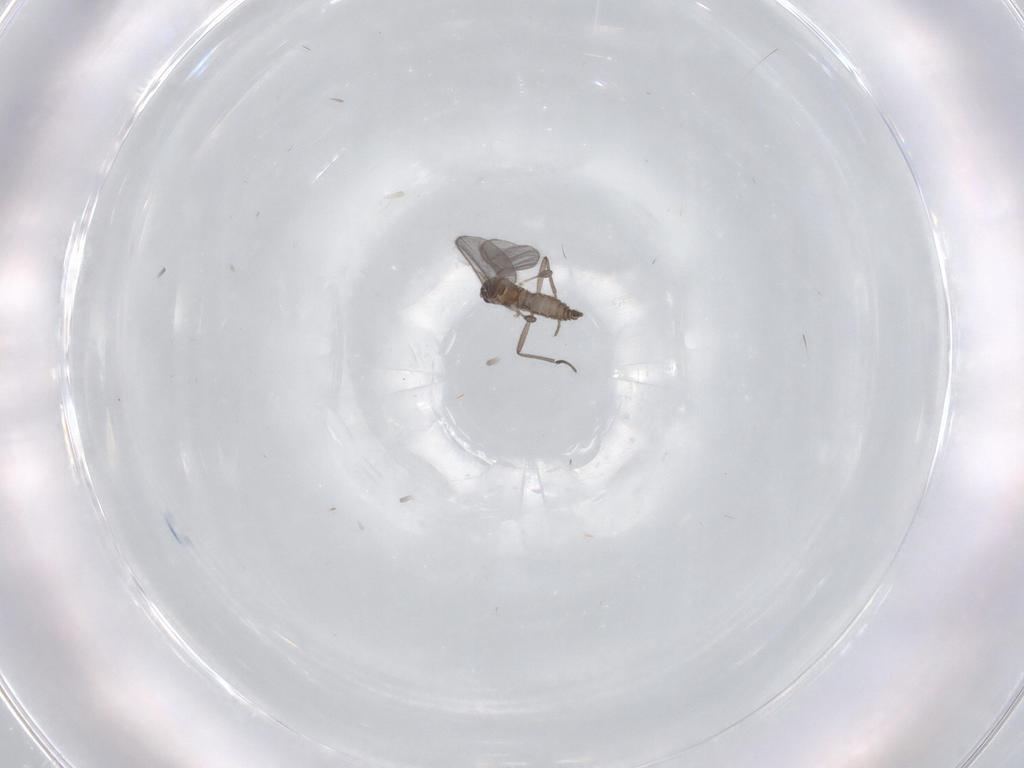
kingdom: Animalia
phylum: Arthropoda
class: Insecta
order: Diptera
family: Sciaridae
